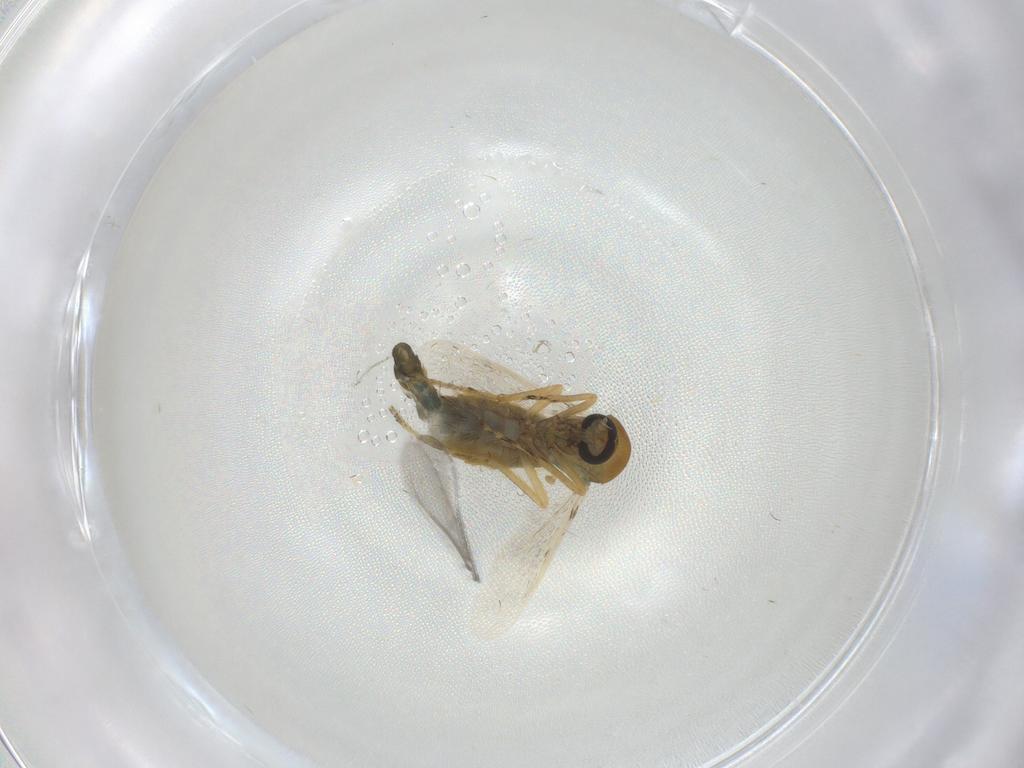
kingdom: Animalia
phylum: Arthropoda
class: Insecta
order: Diptera
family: Ceratopogonidae
